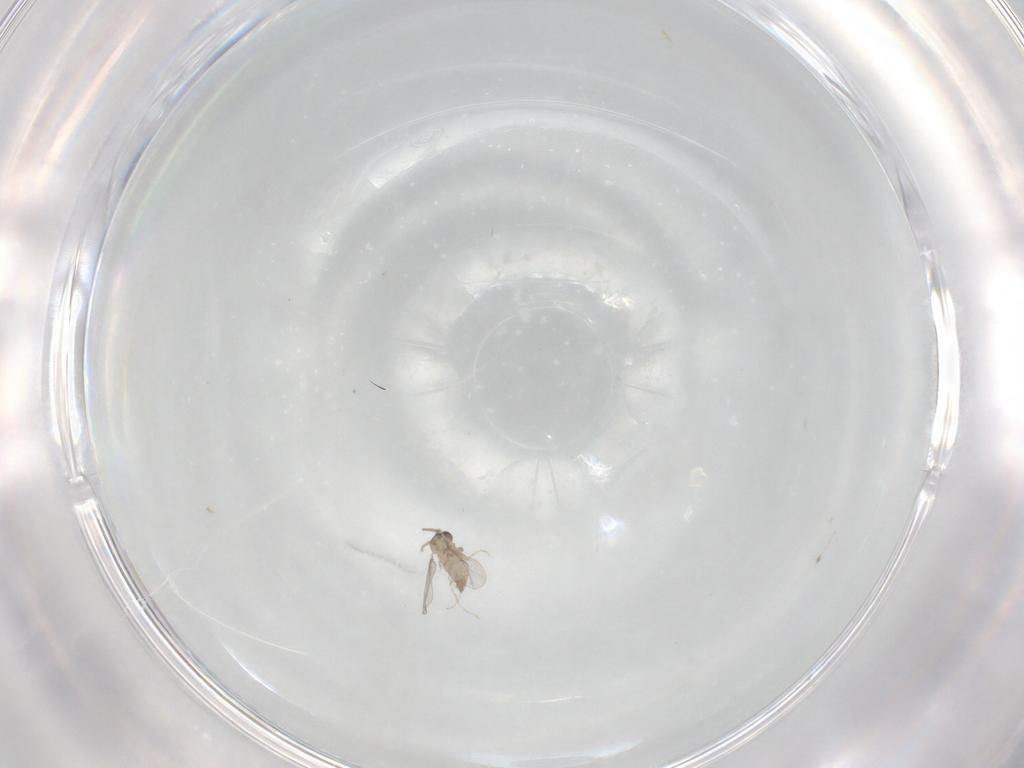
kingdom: Animalia
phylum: Arthropoda
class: Insecta
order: Diptera
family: Cecidomyiidae
